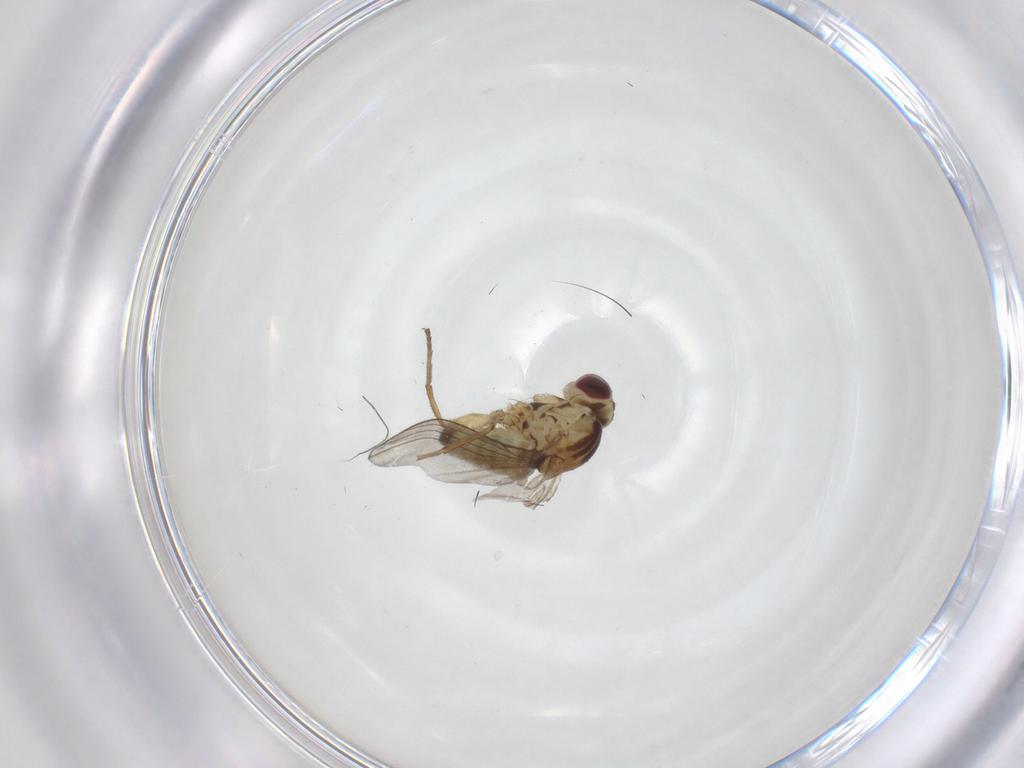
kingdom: Animalia
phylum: Arthropoda
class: Insecta
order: Diptera
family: Agromyzidae
